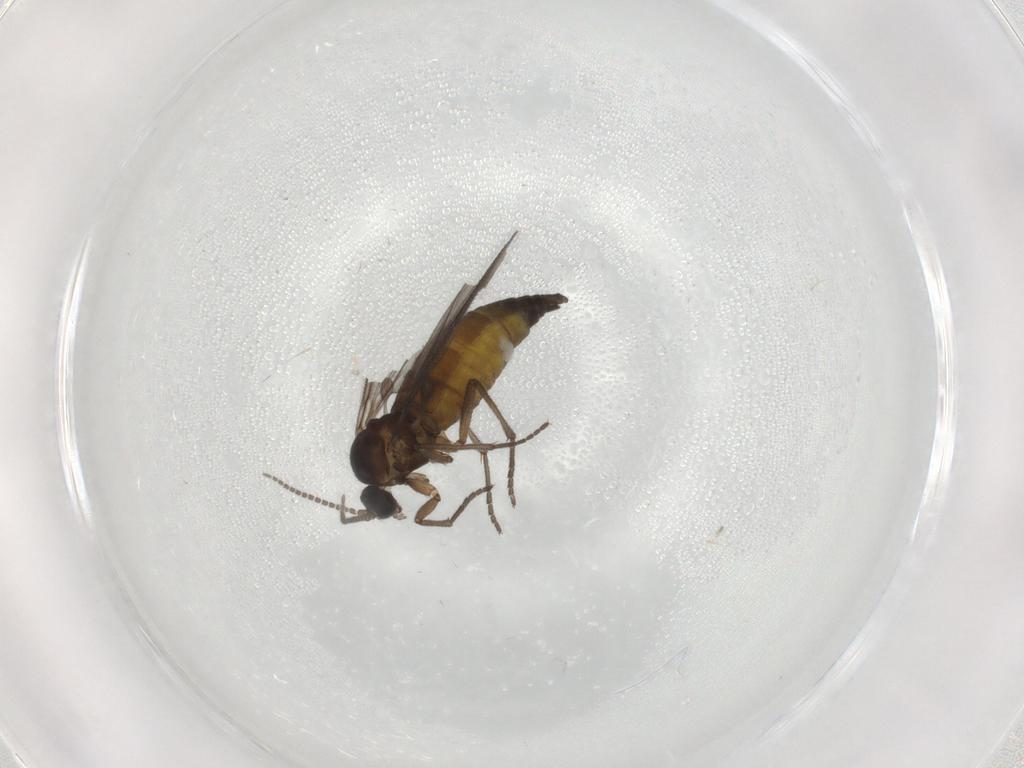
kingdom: Animalia
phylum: Arthropoda
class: Insecta
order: Diptera
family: Sciaridae
